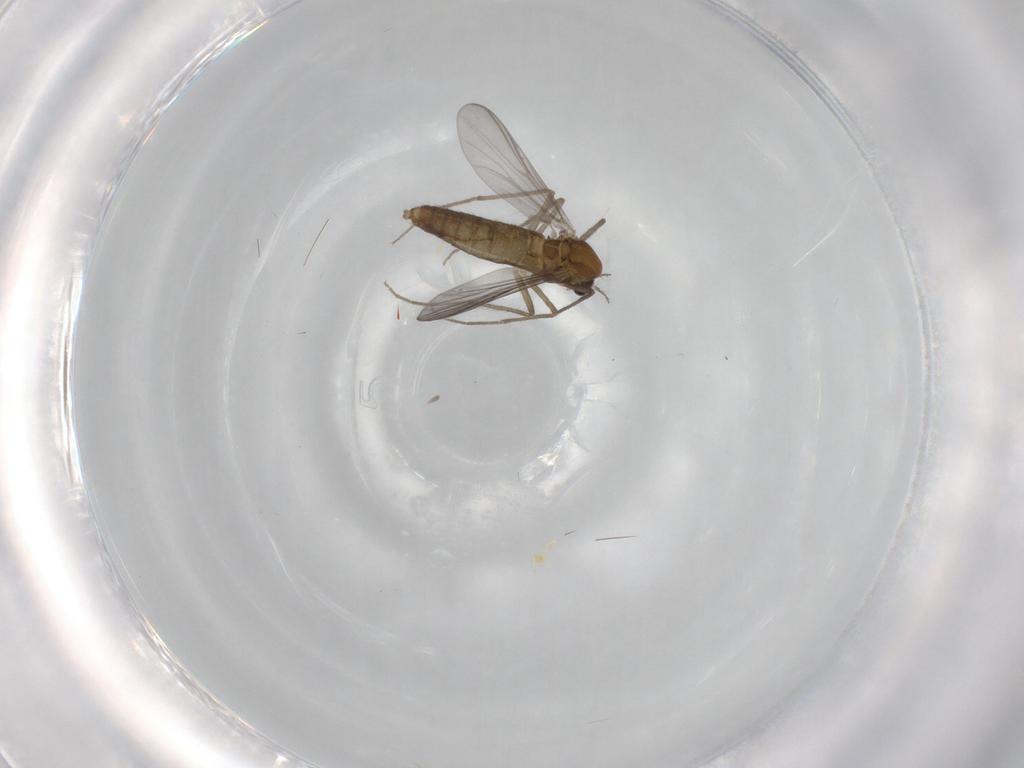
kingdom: Animalia
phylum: Arthropoda
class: Insecta
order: Diptera
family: Chironomidae
